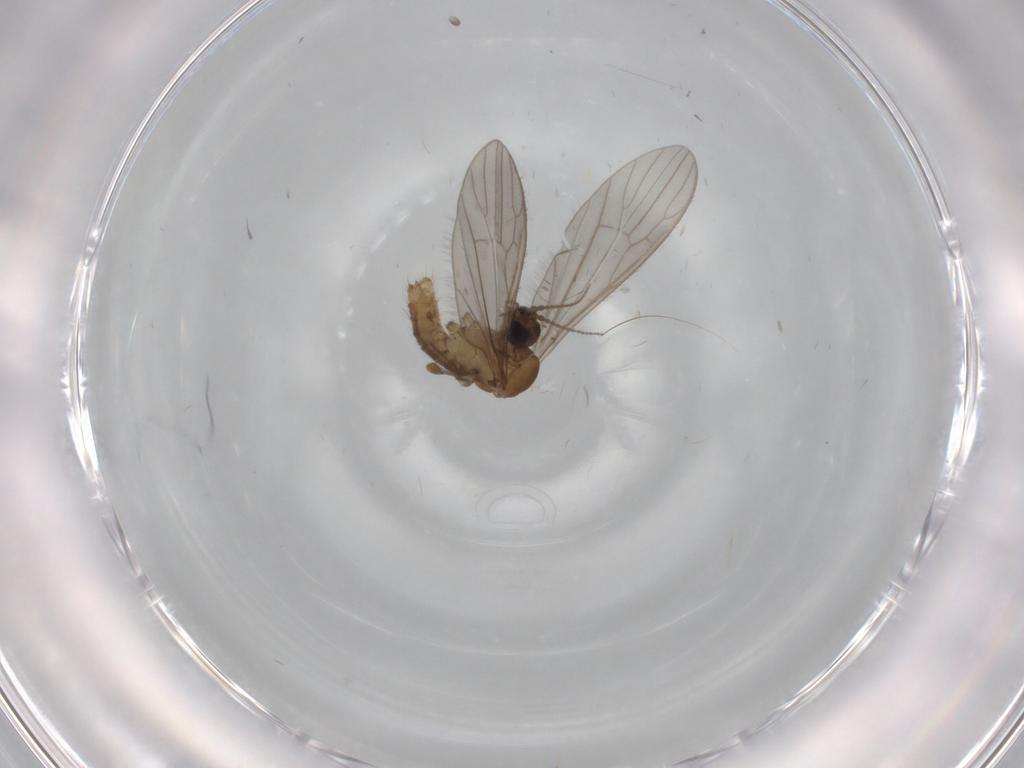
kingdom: Animalia
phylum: Arthropoda
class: Insecta
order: Diptera
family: Limoniidae
